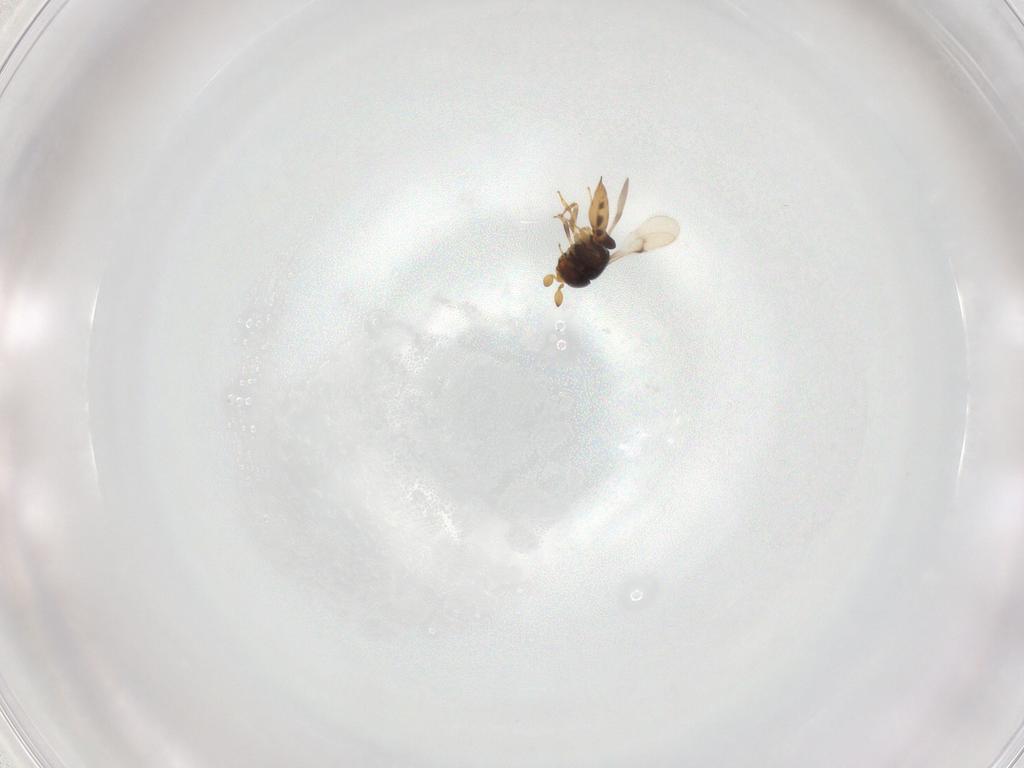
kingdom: Animalia
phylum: Arthropoda
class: Insecta
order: Hymenoptera
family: Scelionidae
